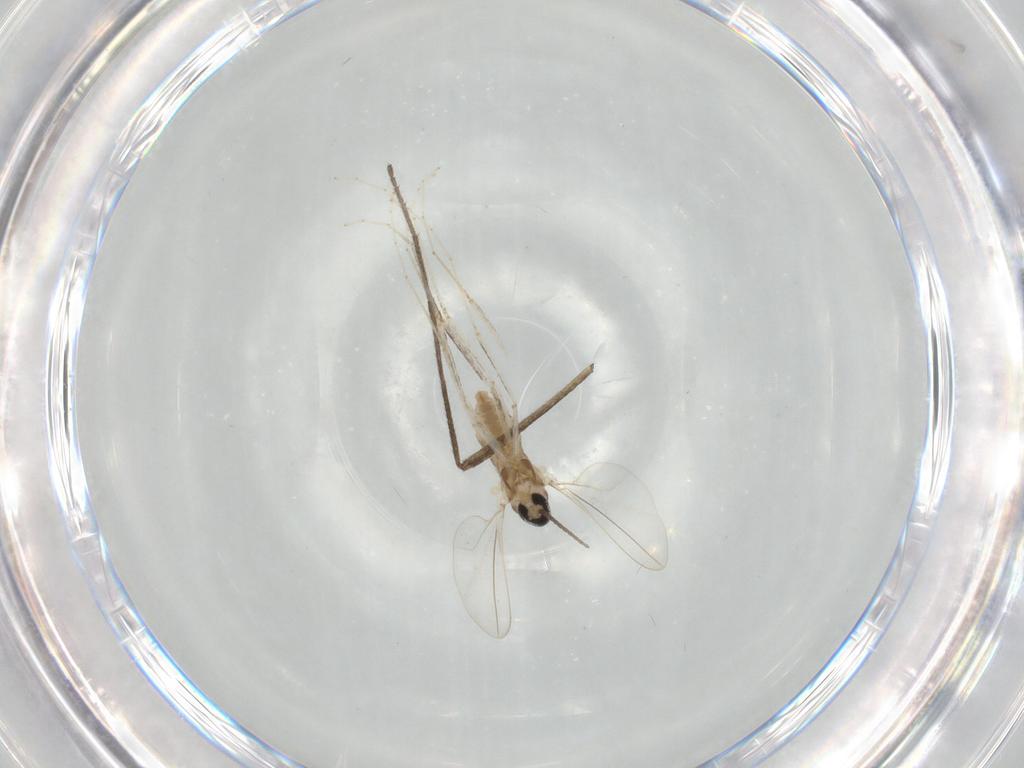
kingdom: Animalia
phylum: Arthropoda
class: Insecta
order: Diptera
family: Cecidomyiidae
